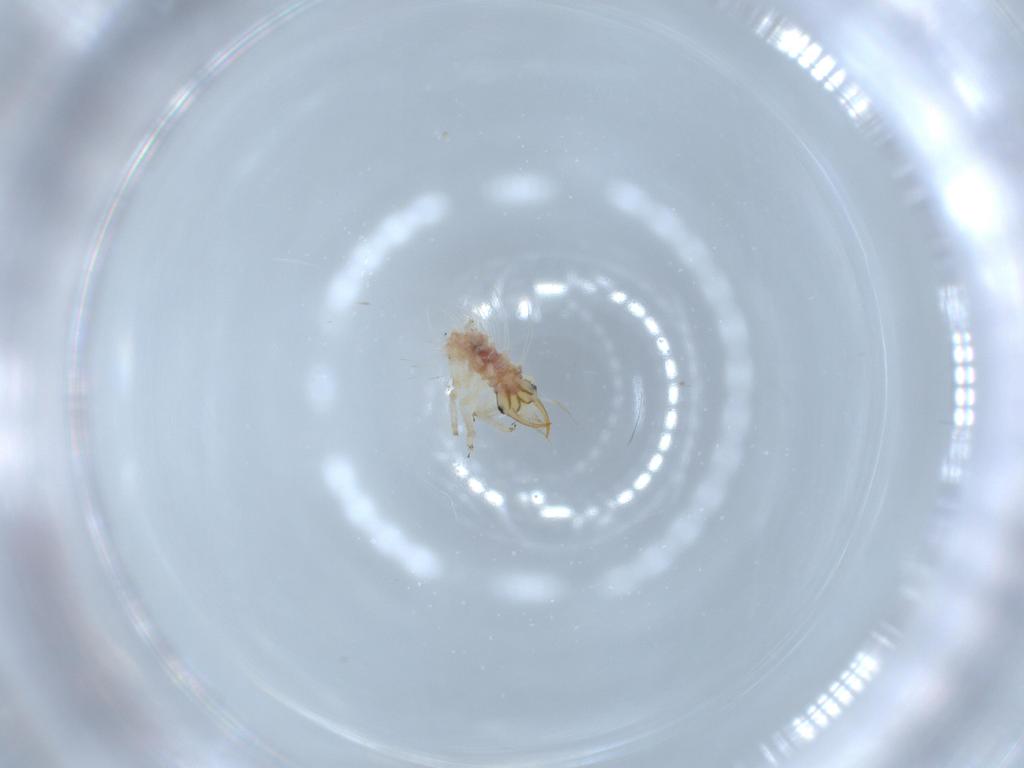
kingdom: Animalia
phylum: Arthropoda
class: Insecta
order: Neuroptera
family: Chrysopidae
